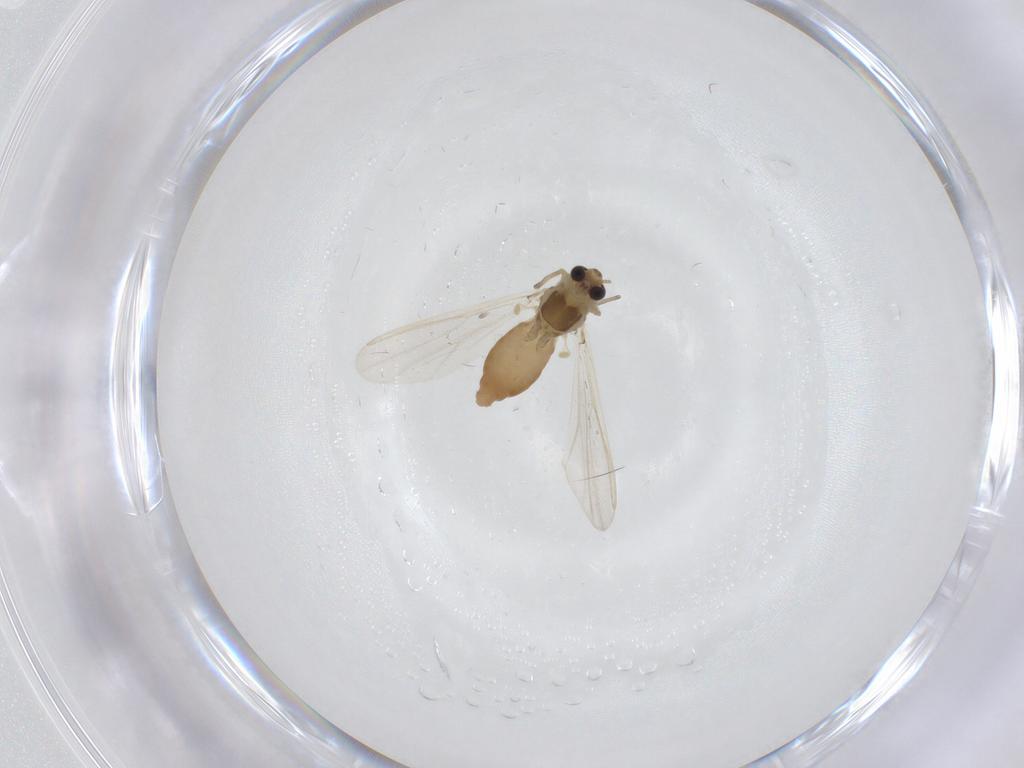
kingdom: Animalia
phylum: Arthropoda
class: Insecta
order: Diptera
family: Chironomidae
